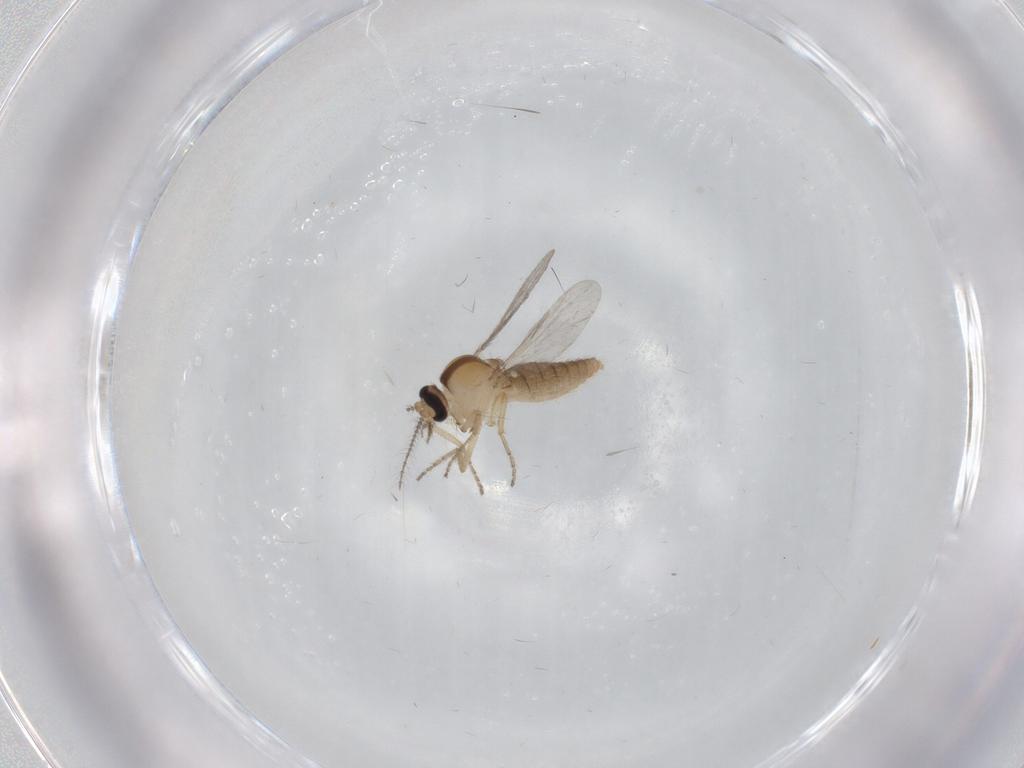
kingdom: Animalia
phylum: Arthropoda
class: Insecta
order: Diptera
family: Ceratopogonidae
